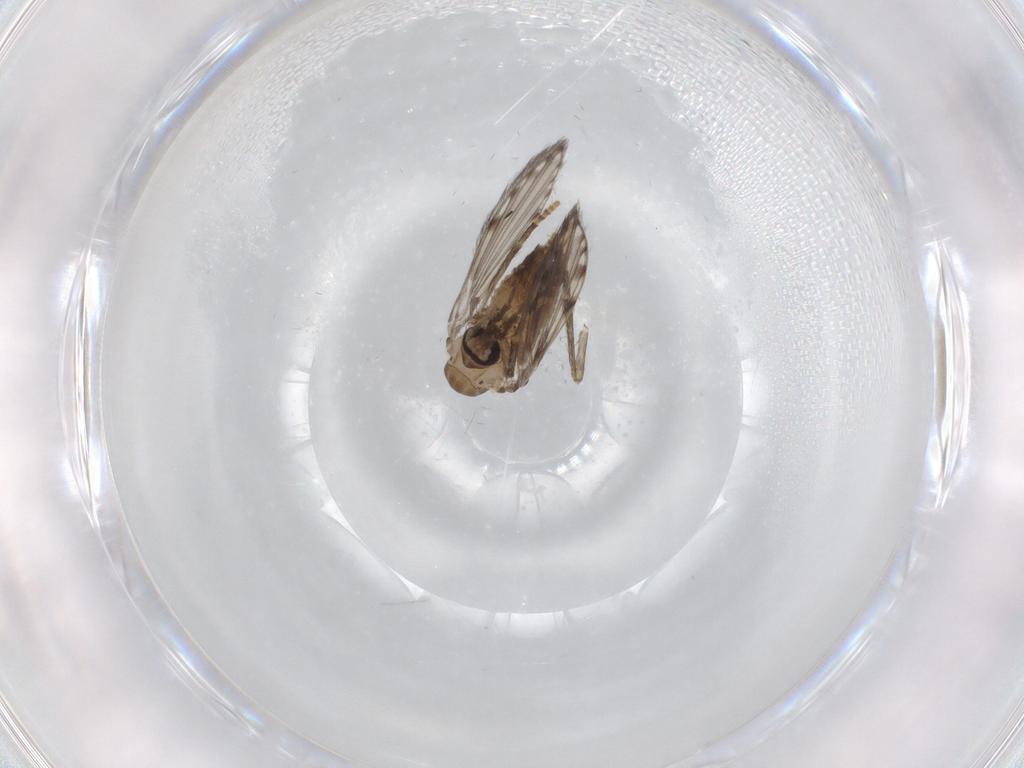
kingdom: Animalia
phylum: Arthropoda
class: Insecta
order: Diptera
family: Psychodidae
